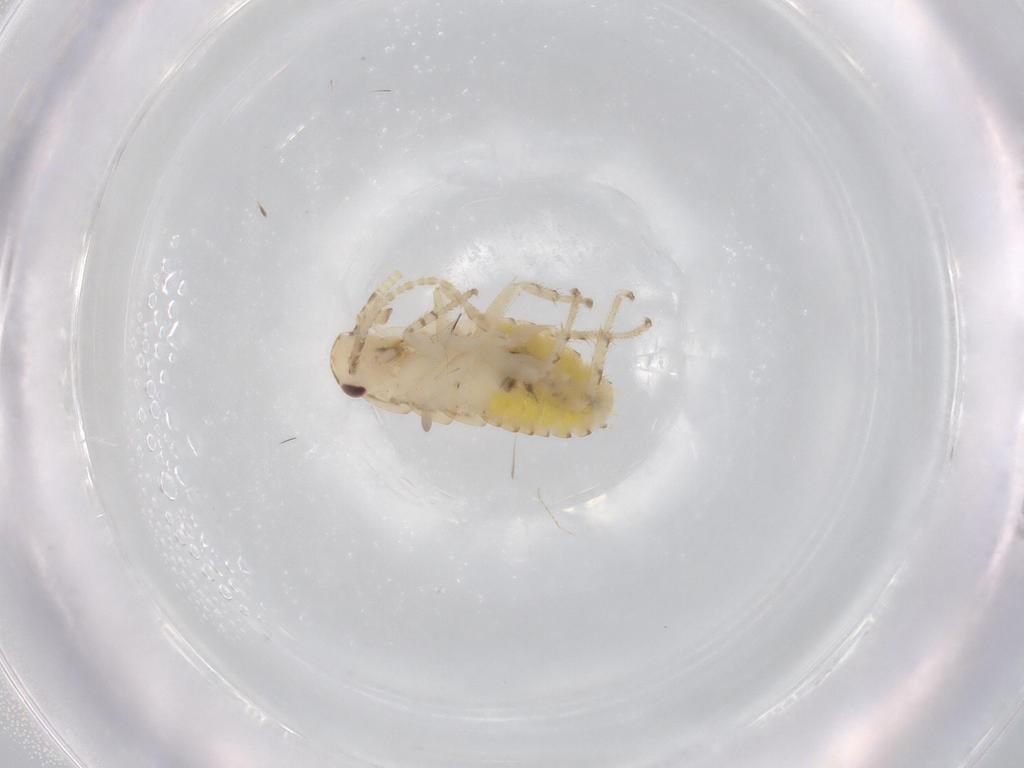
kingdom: Animalia
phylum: Arthropoda
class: Insecta
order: Blattodea
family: Ectobiidae
